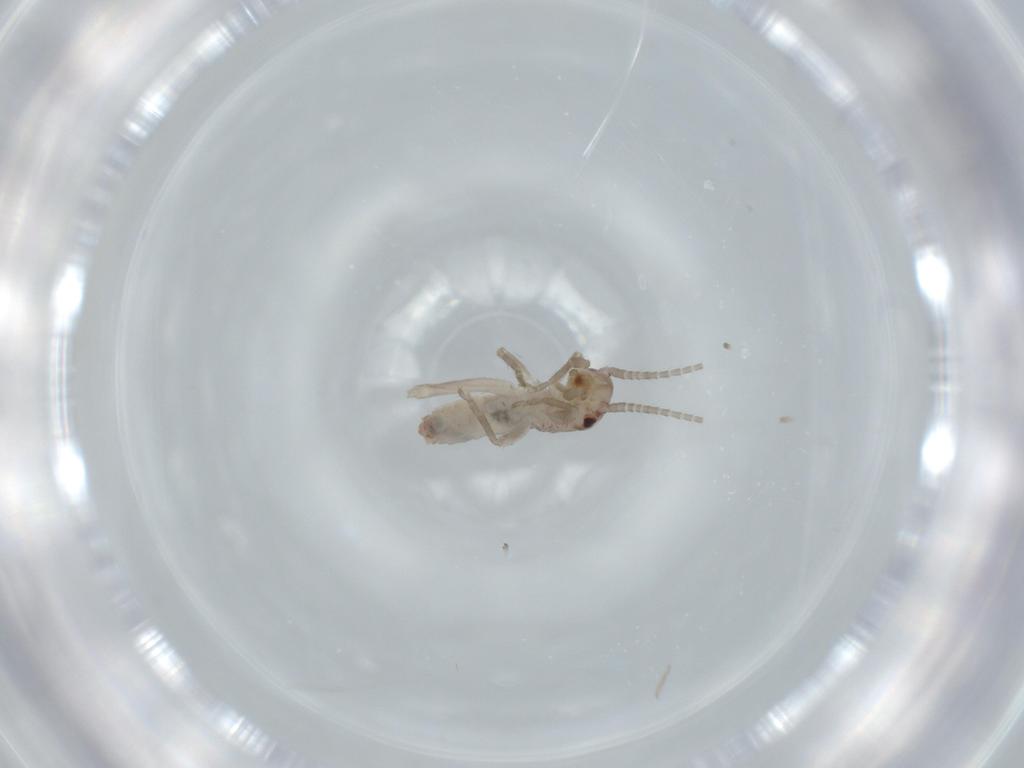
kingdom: Animalia
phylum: Arthropoda
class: Insecta
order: Orthoptera
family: Mogoplistidae
